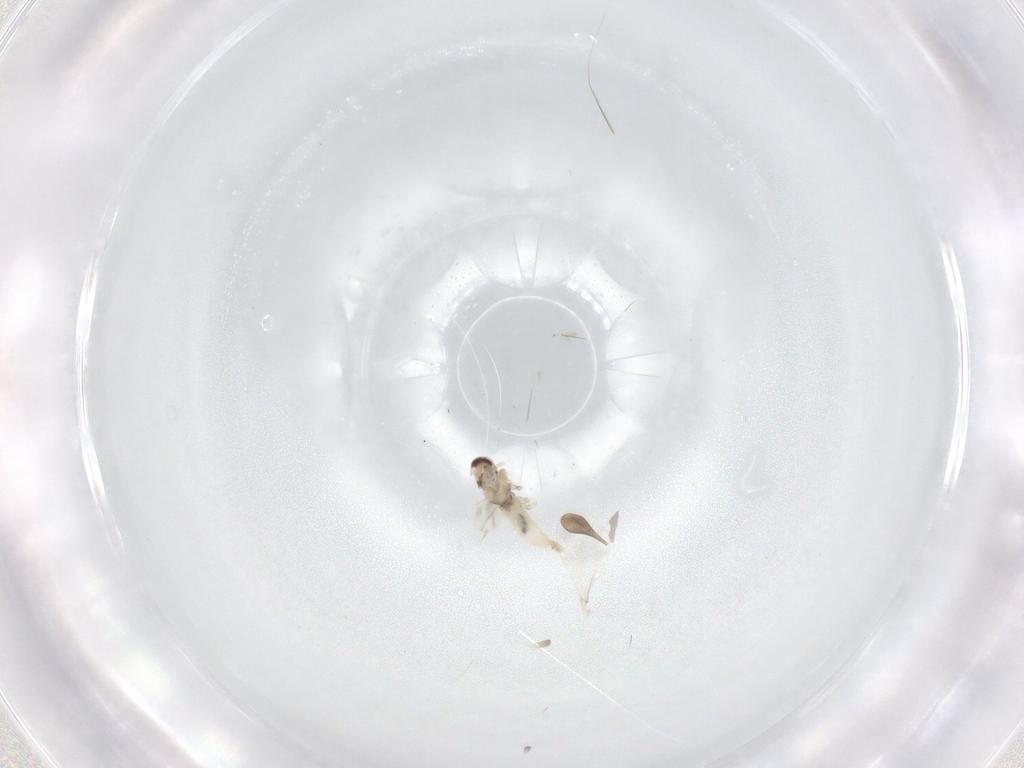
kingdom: Animalia
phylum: Arthropoda
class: Insecta
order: Diptera
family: Cecidomyiidae
